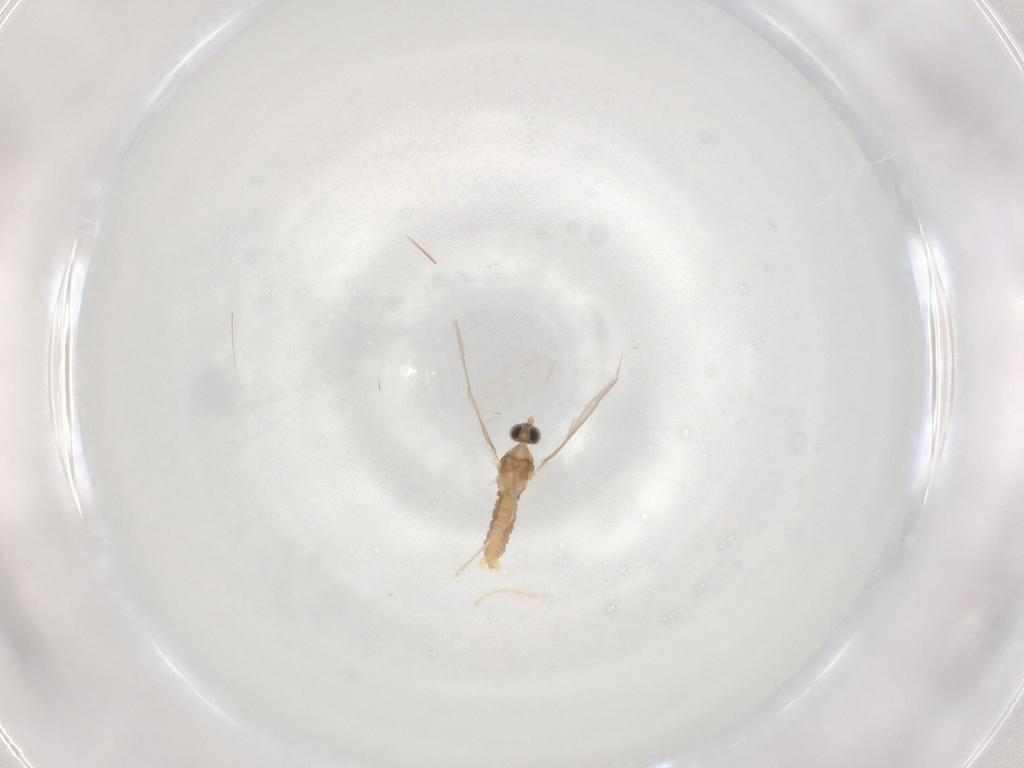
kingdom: Animalia
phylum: Arthropoda
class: Insecta
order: Diptera
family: Cecidomyiidae
